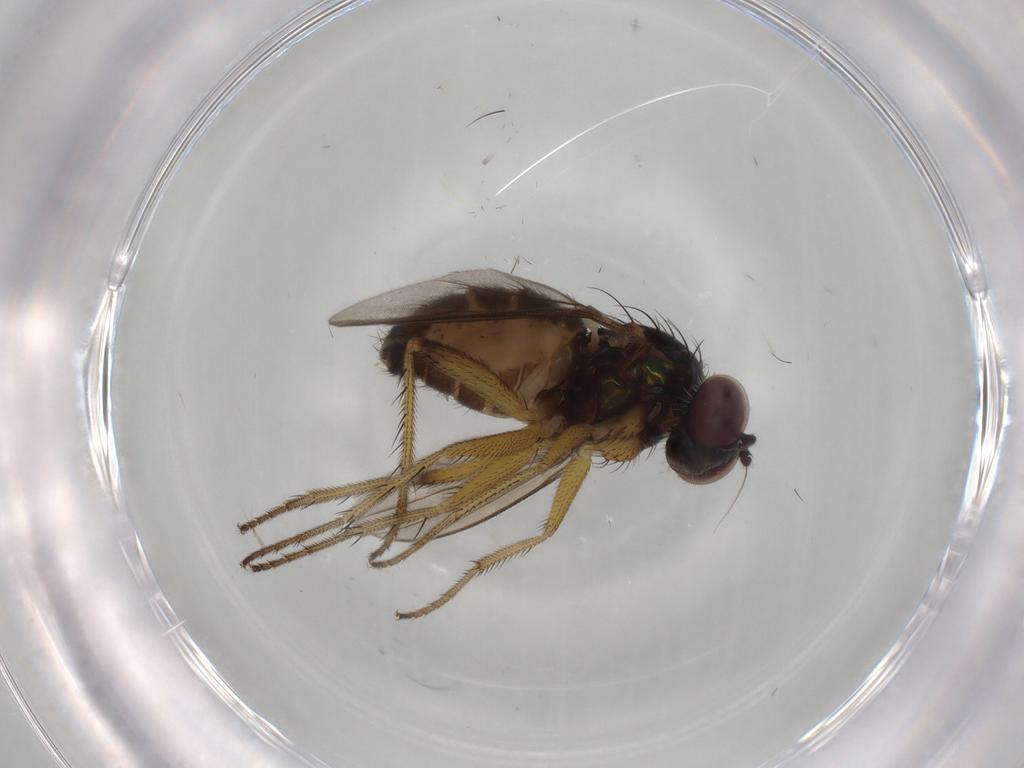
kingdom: Animalia
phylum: Arthropoda
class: Insecta
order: Diptera
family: Dolichopodidae
